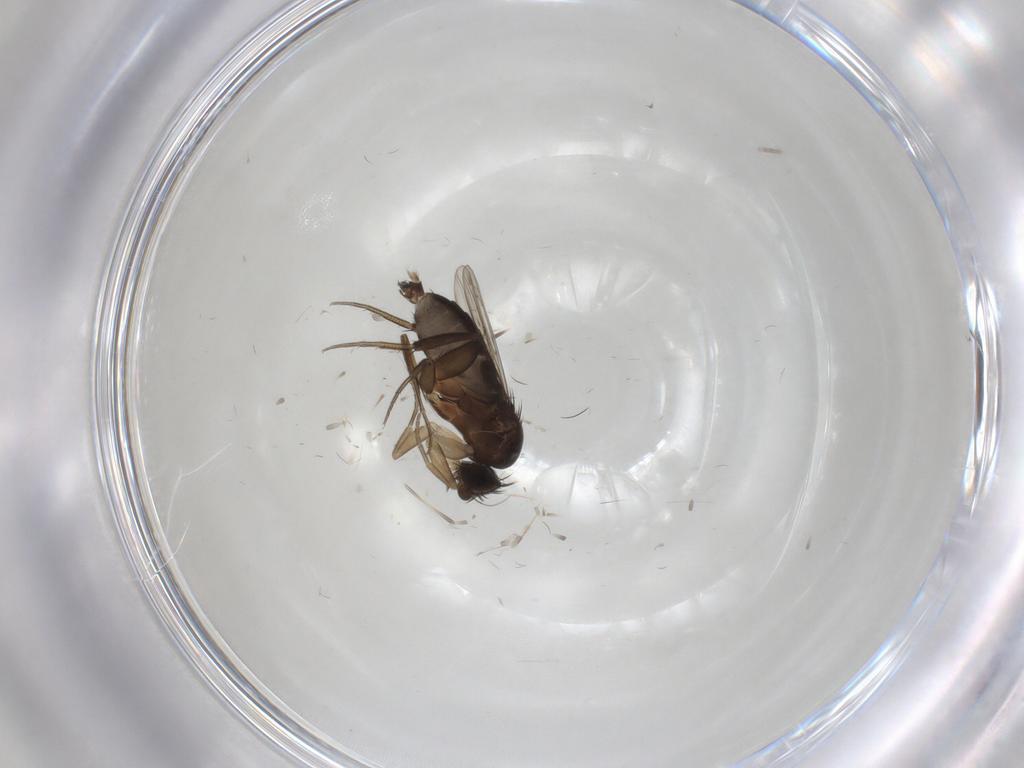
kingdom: Animalia
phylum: Arthropoda
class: Insecta
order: Diptera
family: Phoridae
